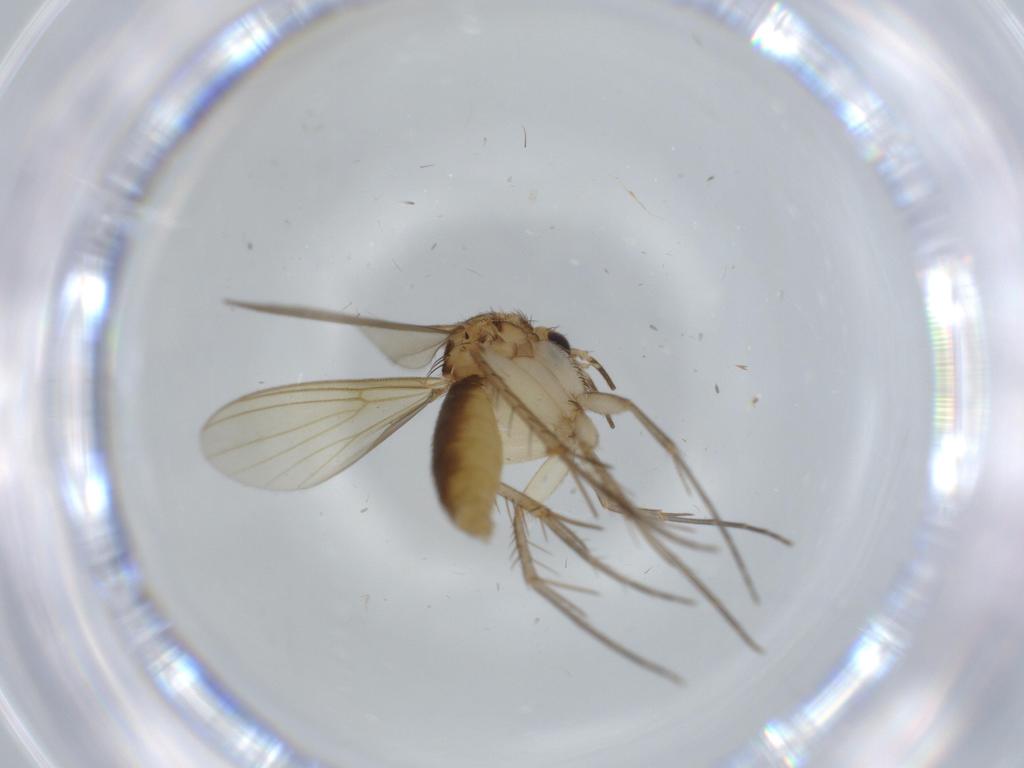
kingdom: Animalia
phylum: Arthropoda
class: Insecta
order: Diptera
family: Mycetophilidae
